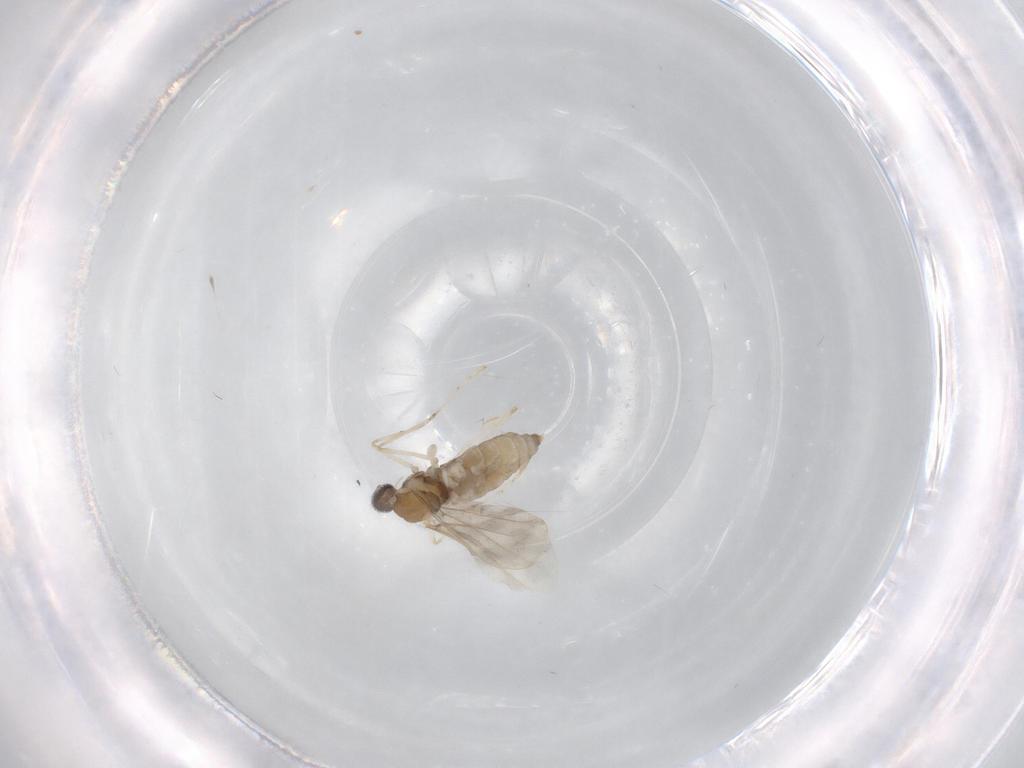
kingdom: Animalia
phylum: Arthropoda
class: Insecta
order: Diptera
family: Cecidomyiidae
